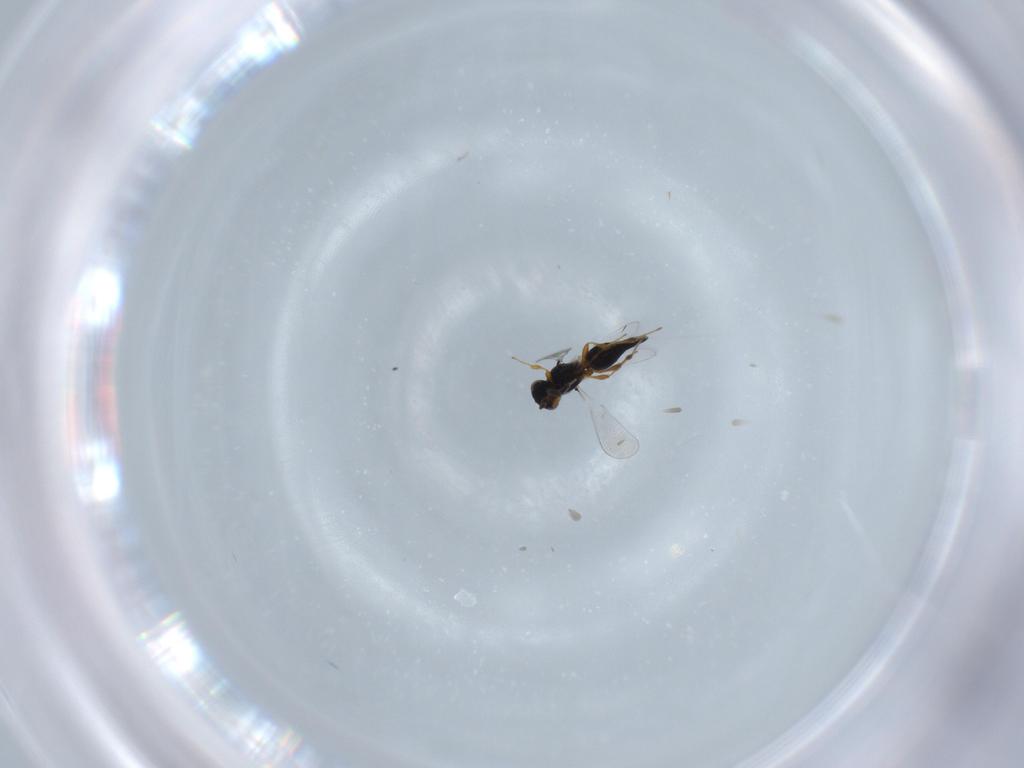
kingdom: Animalia
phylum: Arthropoda
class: Insecta
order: Hymenoptera
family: Platygastridae
